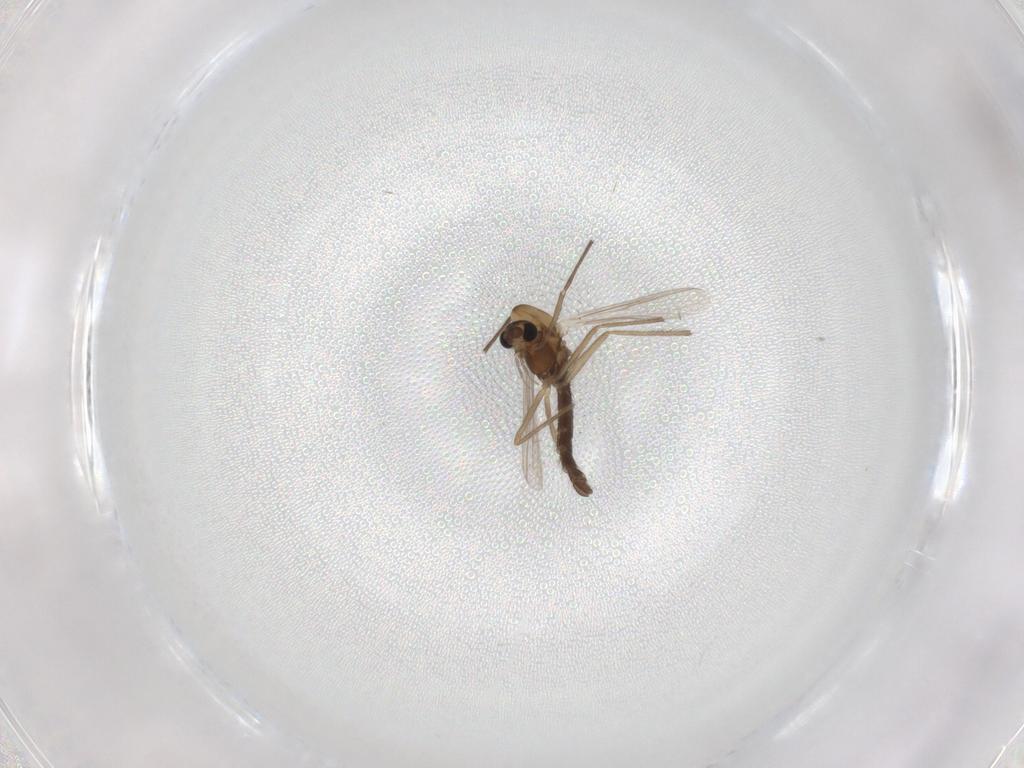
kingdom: Animalia
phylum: Arthropoda
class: Insecta
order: Diptera
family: Chironomidae
